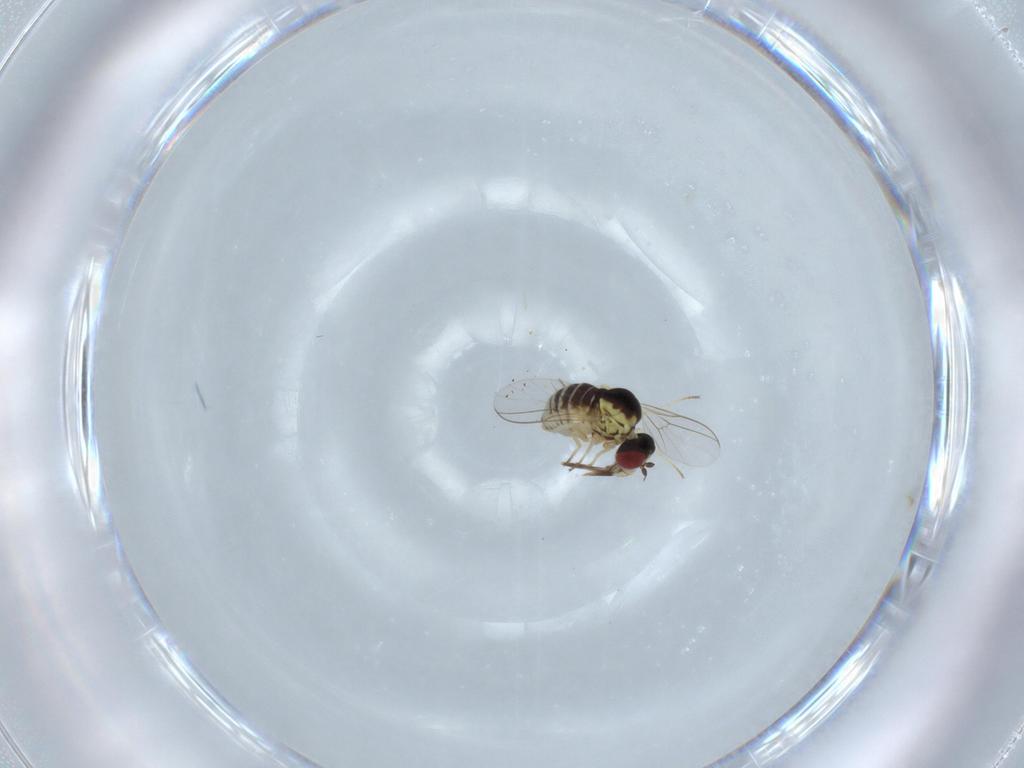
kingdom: Animalia
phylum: Arthropoda
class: Insecta
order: Diptera
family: Bombyliidae
